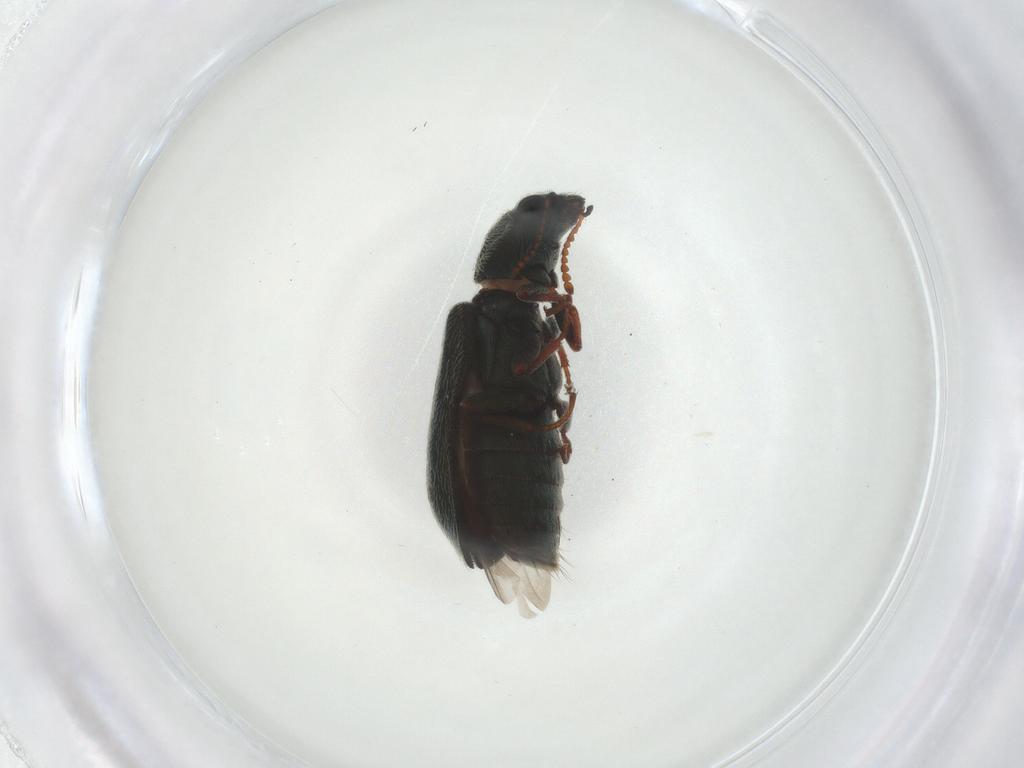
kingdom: Animalia
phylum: Arthropoda
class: Insecta
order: Coleoptera
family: Melyridae
